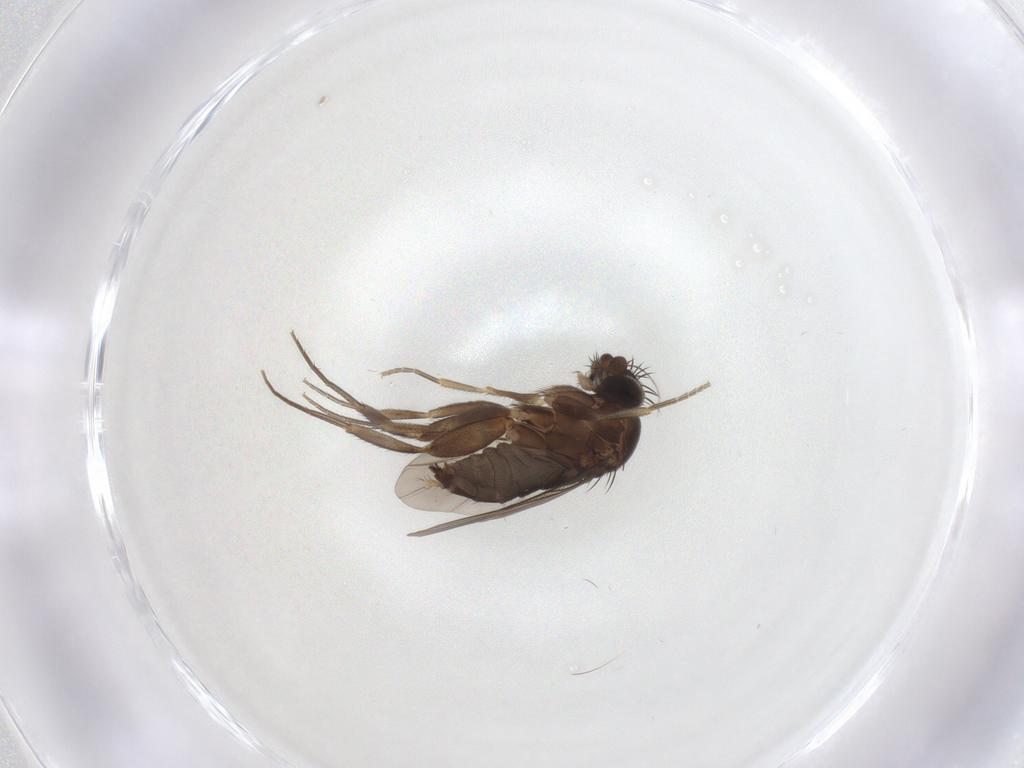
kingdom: Animalia
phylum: Arthropoda
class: Insecta
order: Diptera
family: Phoridae
